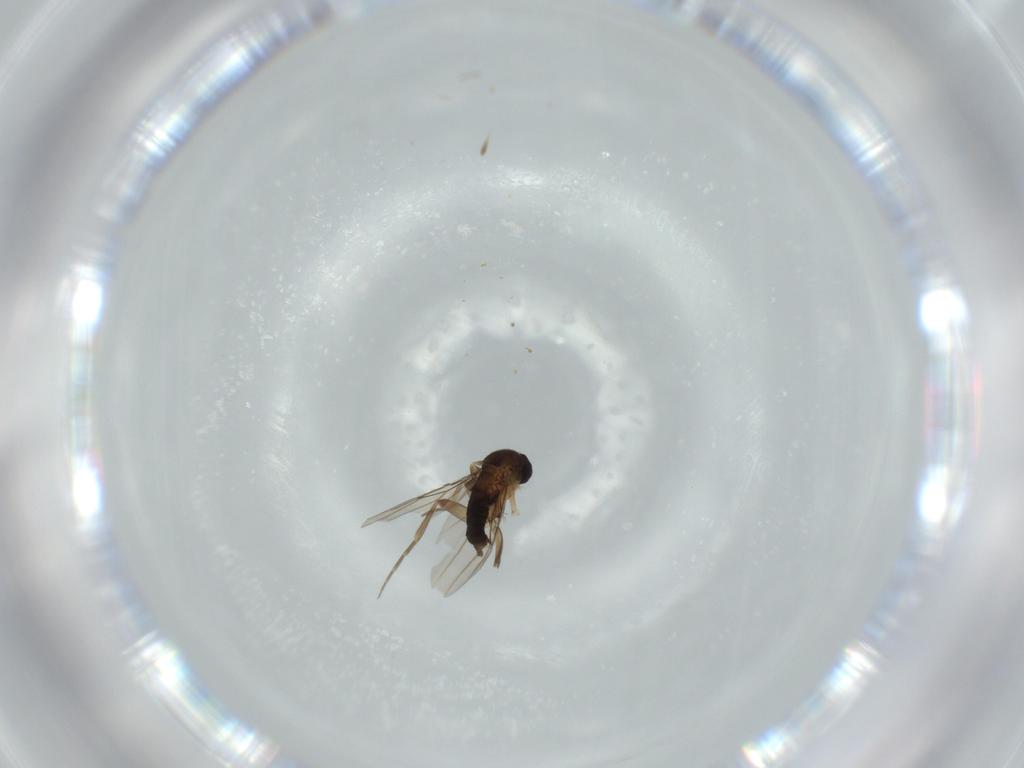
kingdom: Animalia
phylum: Arthropoda
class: Insecta
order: Diptera
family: Phoridae
